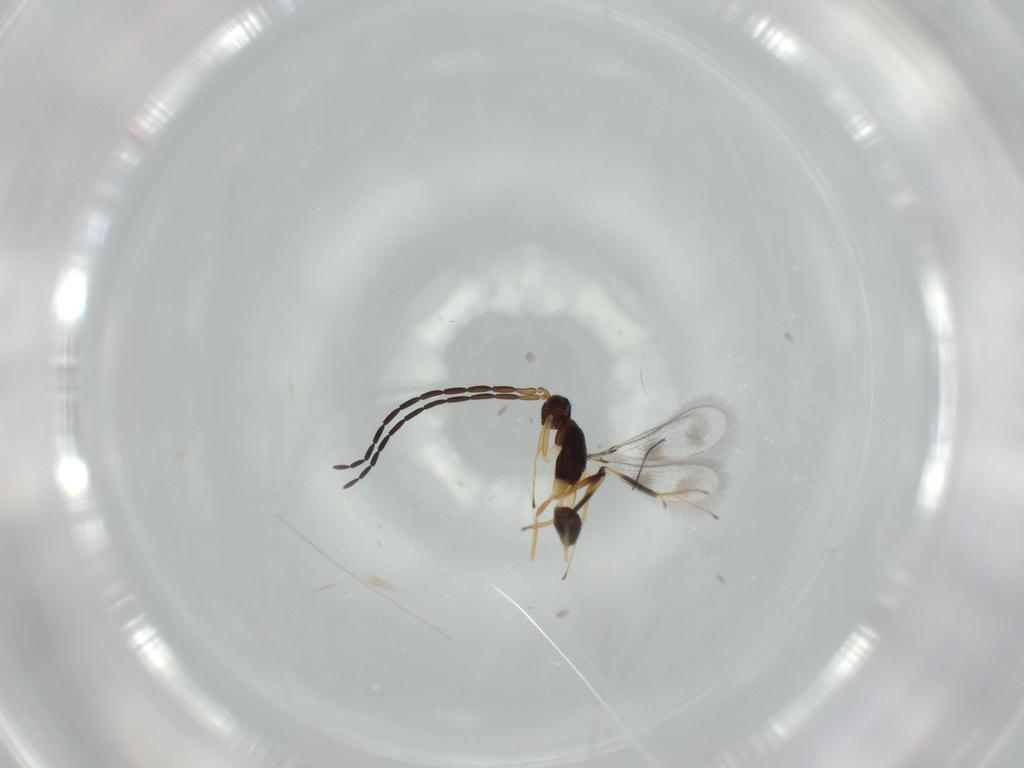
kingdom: Animalia
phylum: Arthropoda
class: Insecta
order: Hymenoptera
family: Mymaridae
